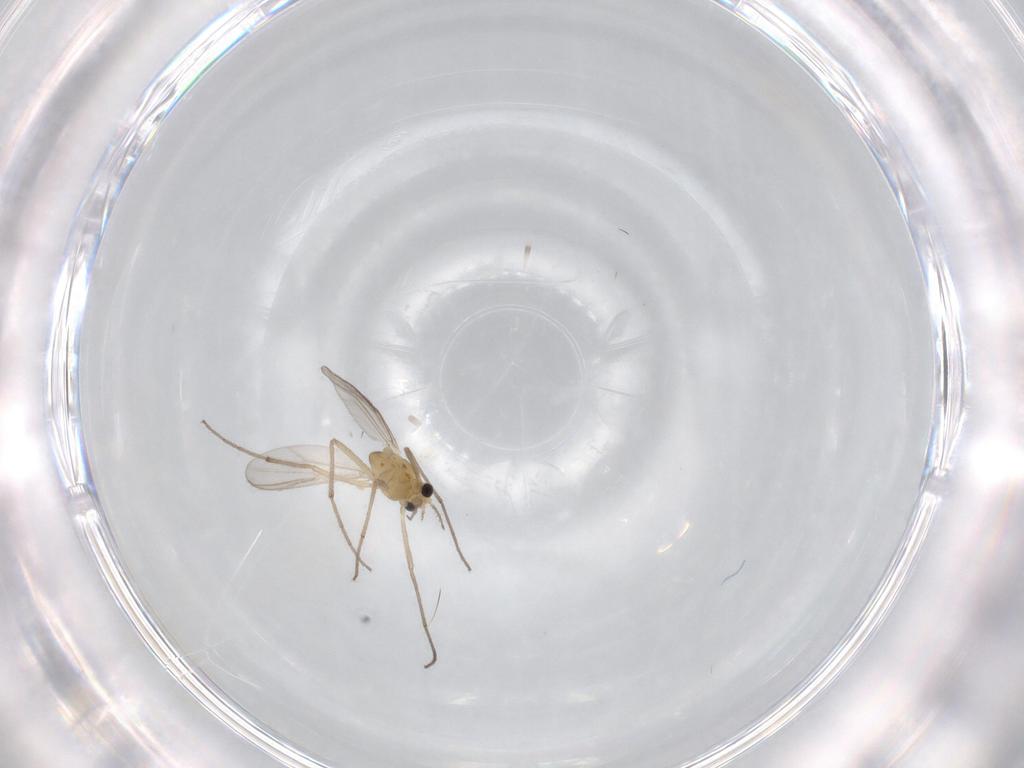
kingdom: Animalia
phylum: Arthropoda
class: Insecta
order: Diptera
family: Chironomidae
